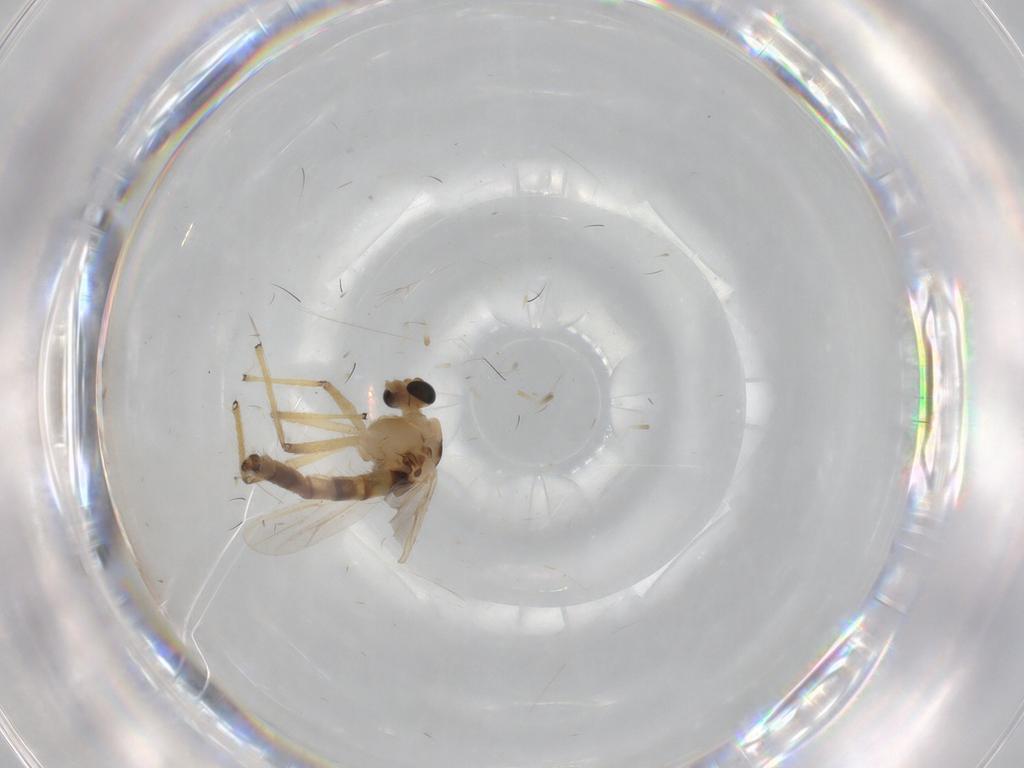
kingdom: Animalia
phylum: Arthropoda
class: Insecta
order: Diptera
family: Chironomidae
